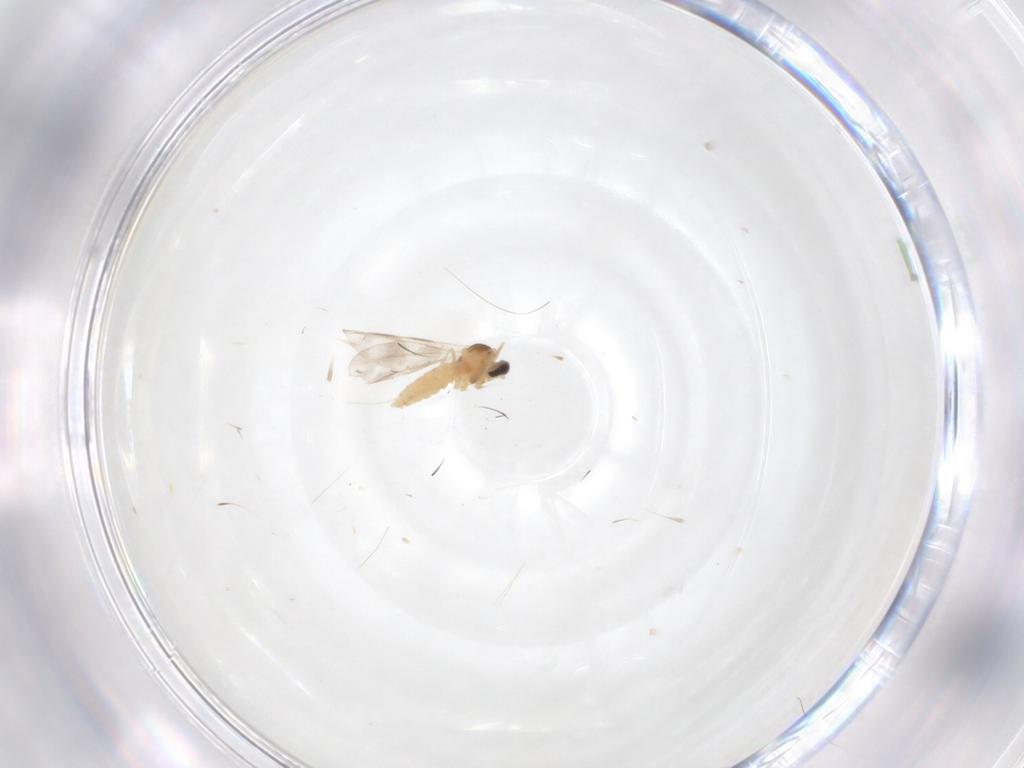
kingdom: Animalia
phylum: Arthropoda
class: Insecta
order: Diptera
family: Cecidomyiidae
